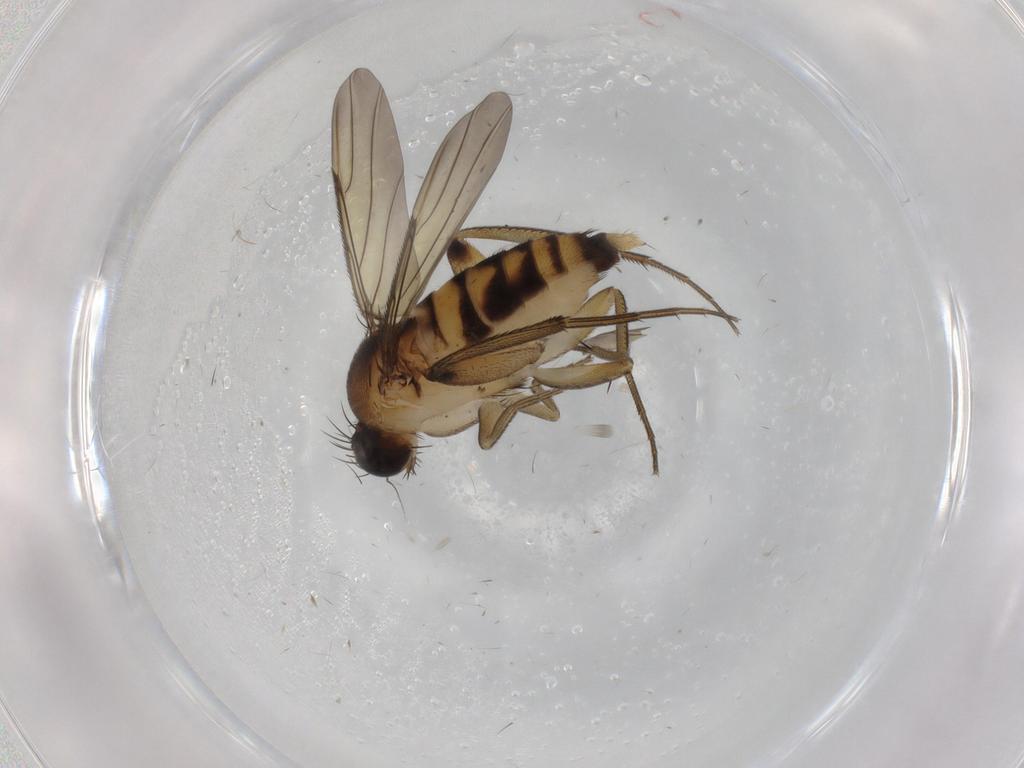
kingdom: Animalia
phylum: Arthropoda
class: Insecta
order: Diptera
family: Phoridae
